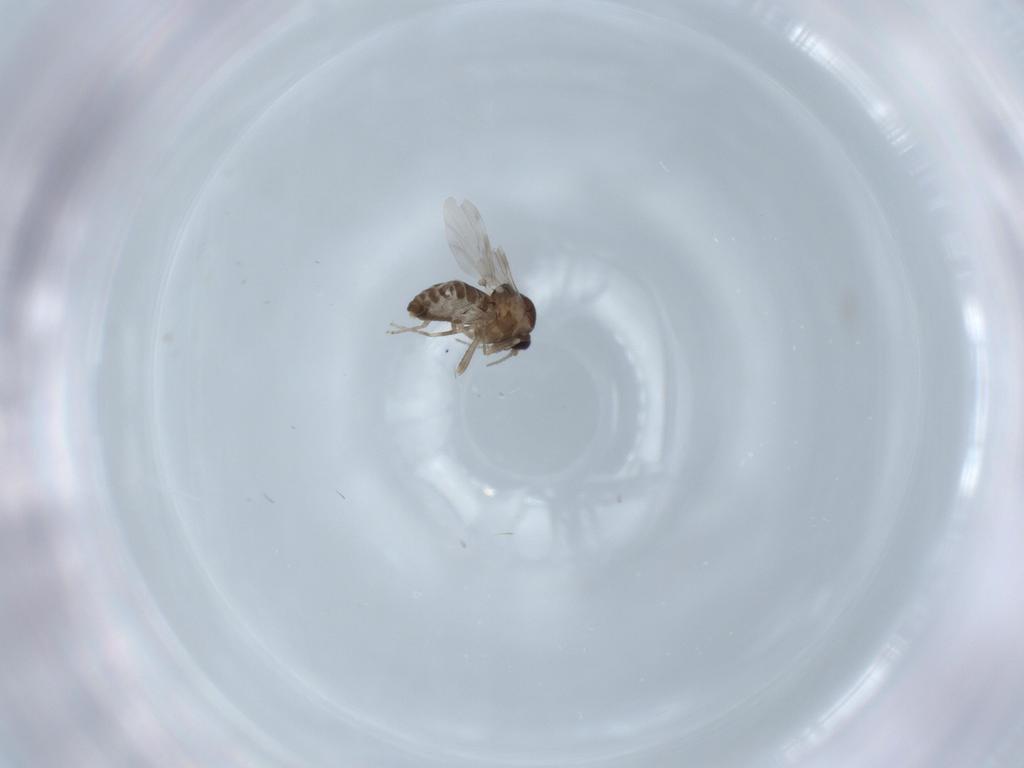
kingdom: Animalia
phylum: Arthropoda
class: Insecta
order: Diptera
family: Ceratopogonidae
